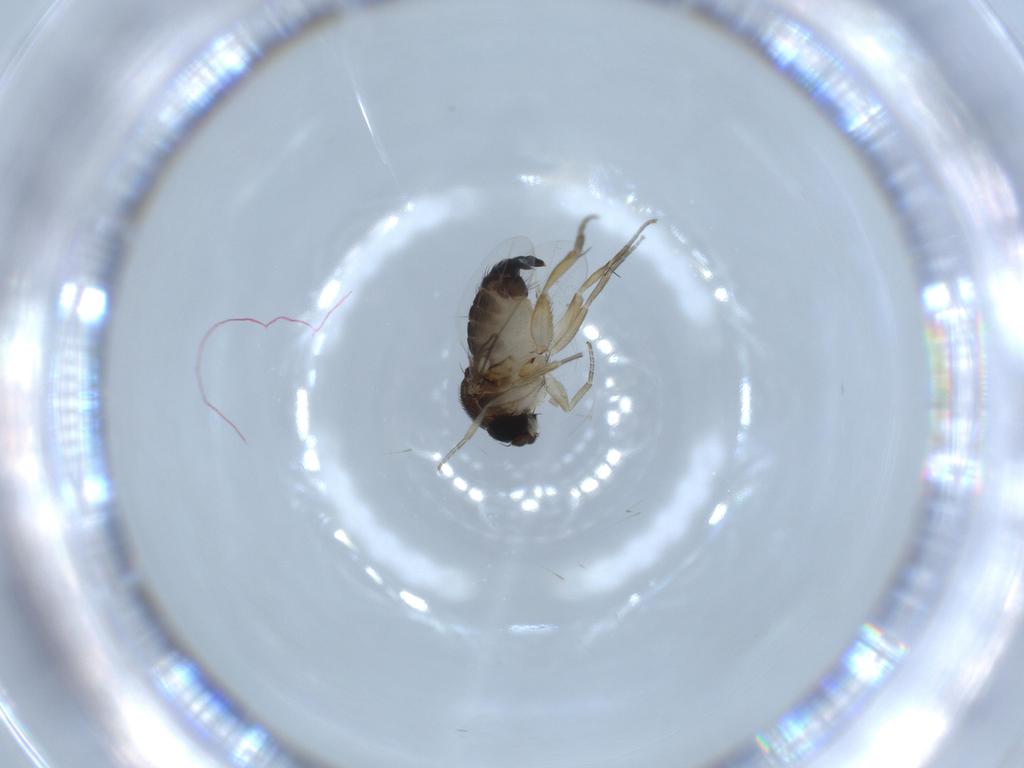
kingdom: Animalia
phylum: Arthropoda
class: Insecta
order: Diptera
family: Phoridae
